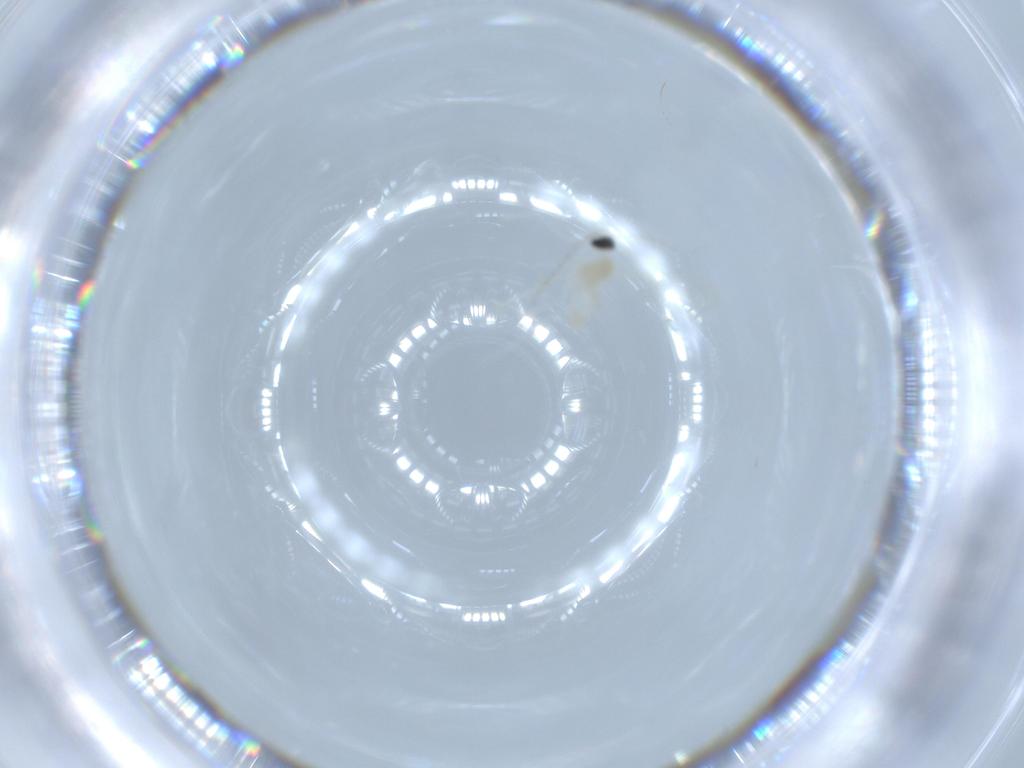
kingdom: Animalia
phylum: Arthropoda
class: Insecta
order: Diptera
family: Cecidomyiidae
